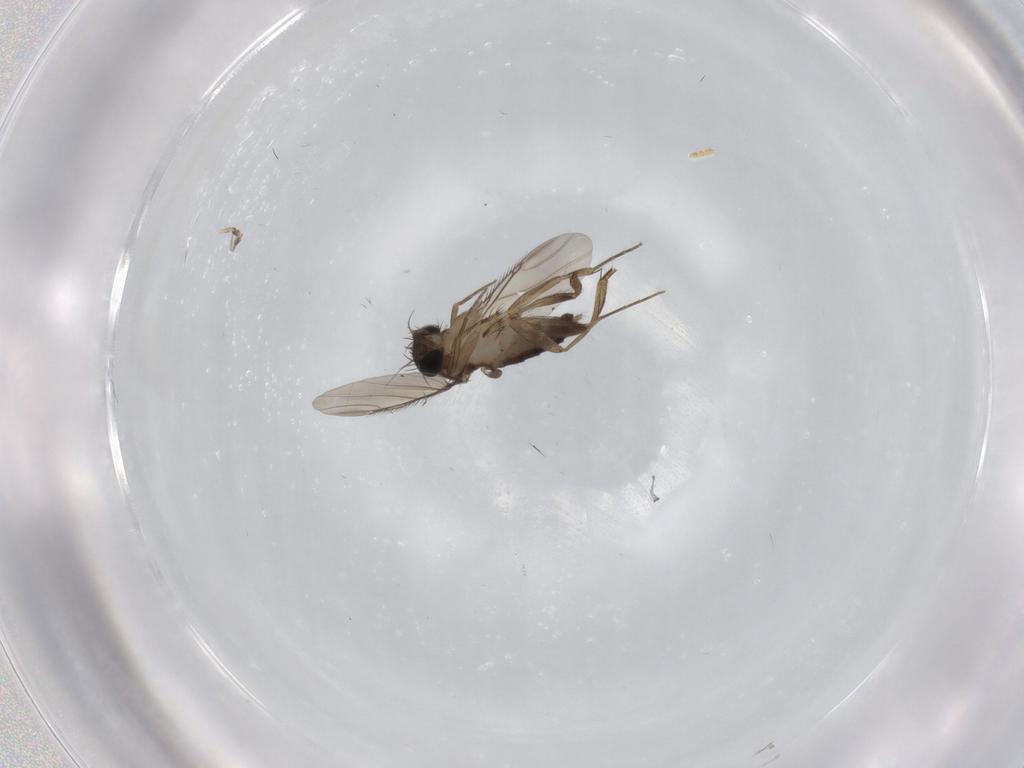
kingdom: Animalia
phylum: Arthropoda
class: Insecta
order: Diptera
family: Phoridae
